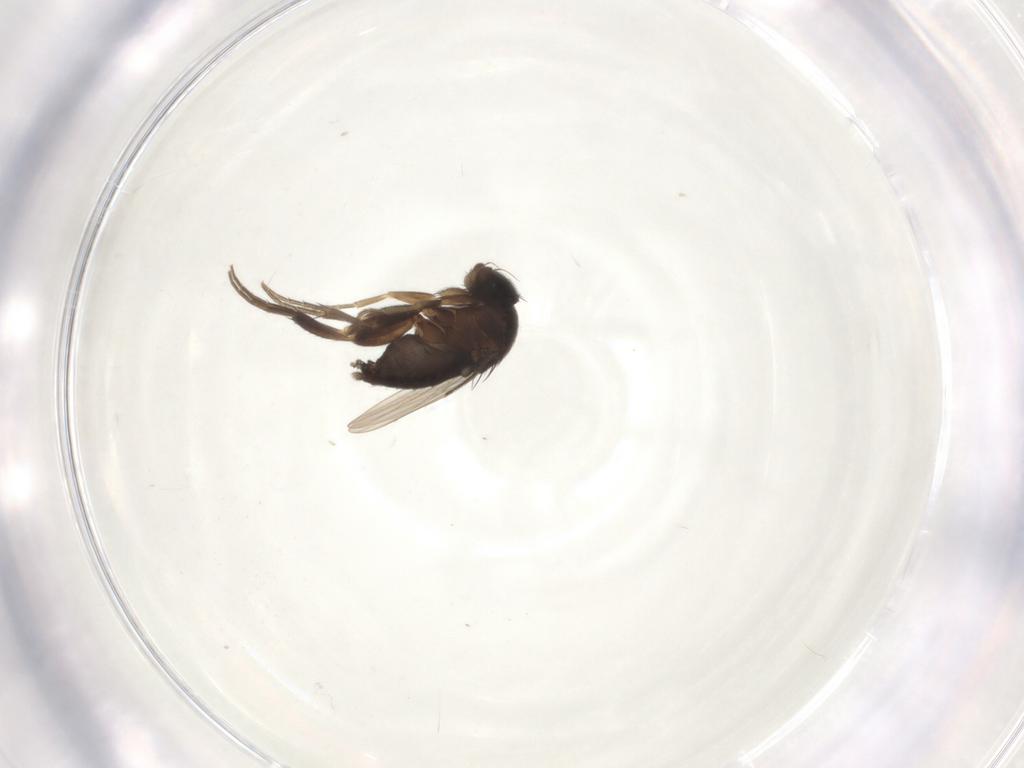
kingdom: Animalia
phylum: Arthropoda
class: Insecta
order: Diptera
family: Phoridae
